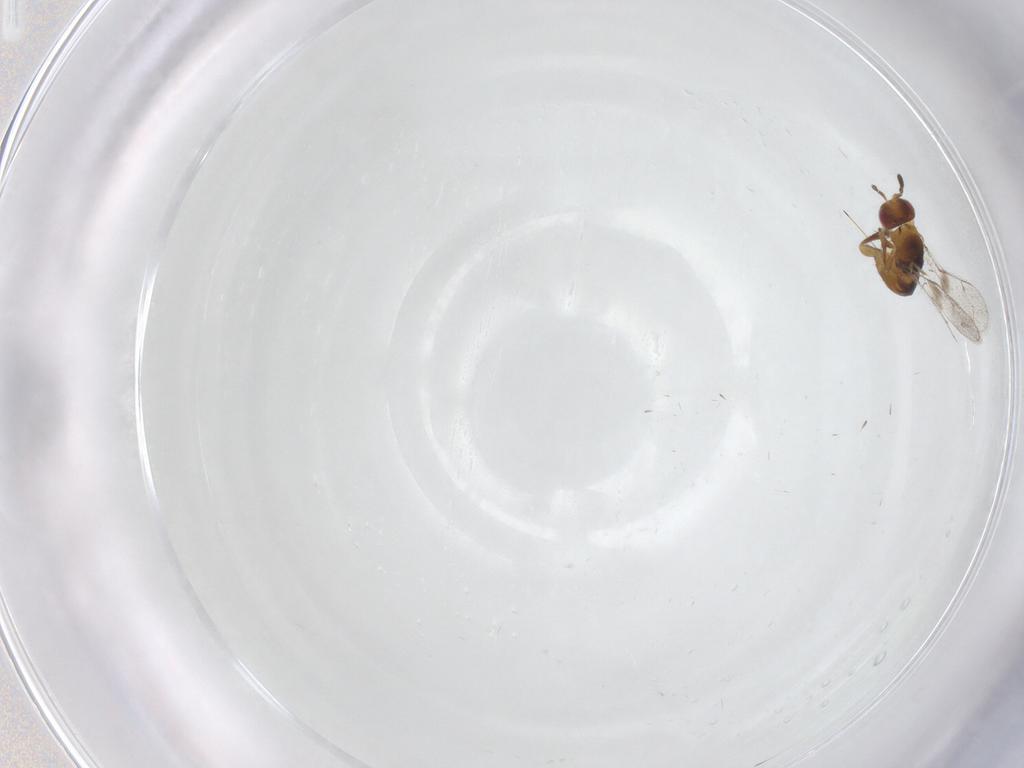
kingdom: Animalia
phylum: Arthropoda
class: Insecta
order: Hymenoptera
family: Torymidae
